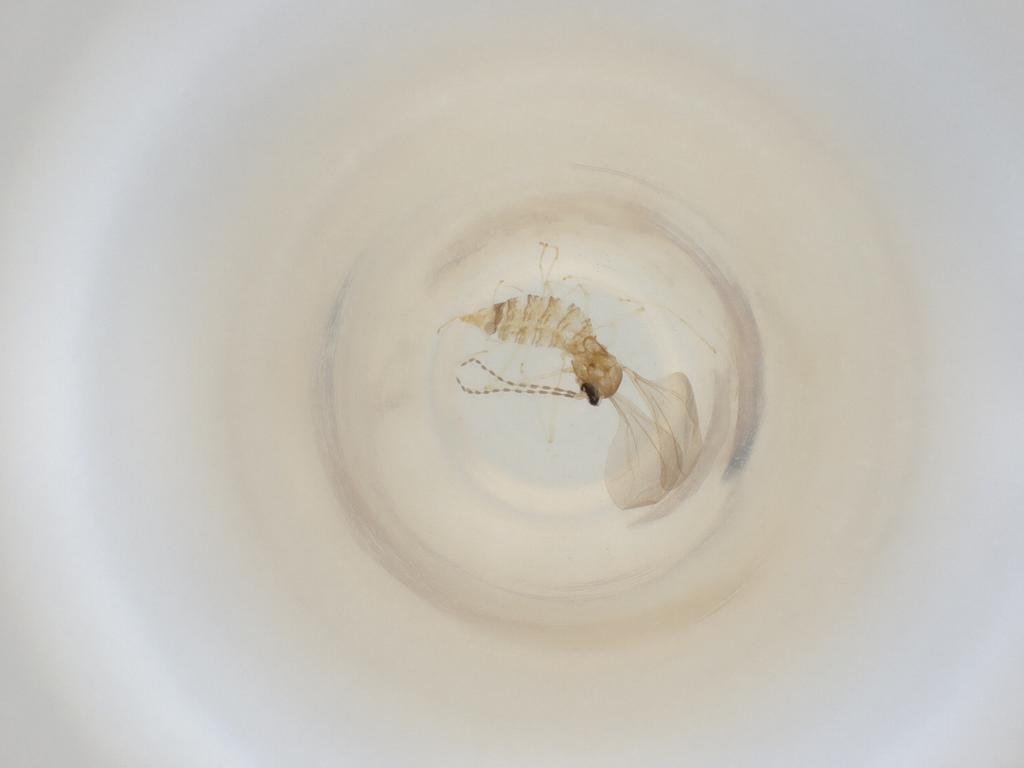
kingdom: Animalia
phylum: Arthropoda
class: Insecta
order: Diptera
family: Cecidomyiidae
